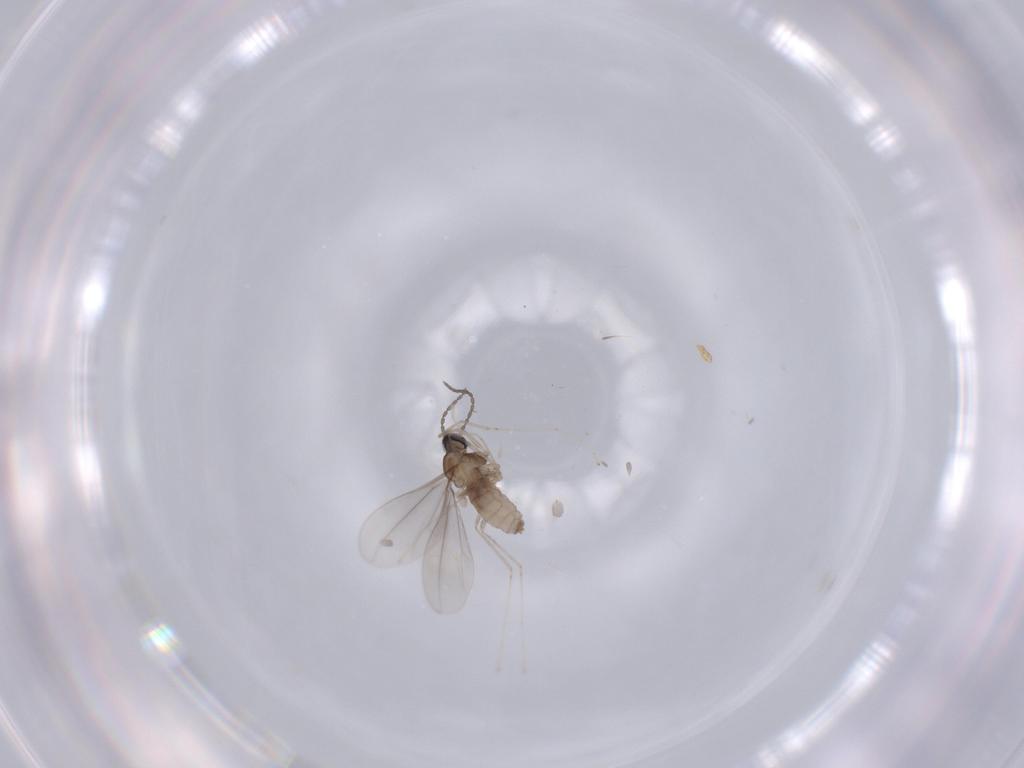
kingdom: Animalia
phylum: Arthropoda
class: Insecta
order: Diptera
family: Cecidomyiidae
